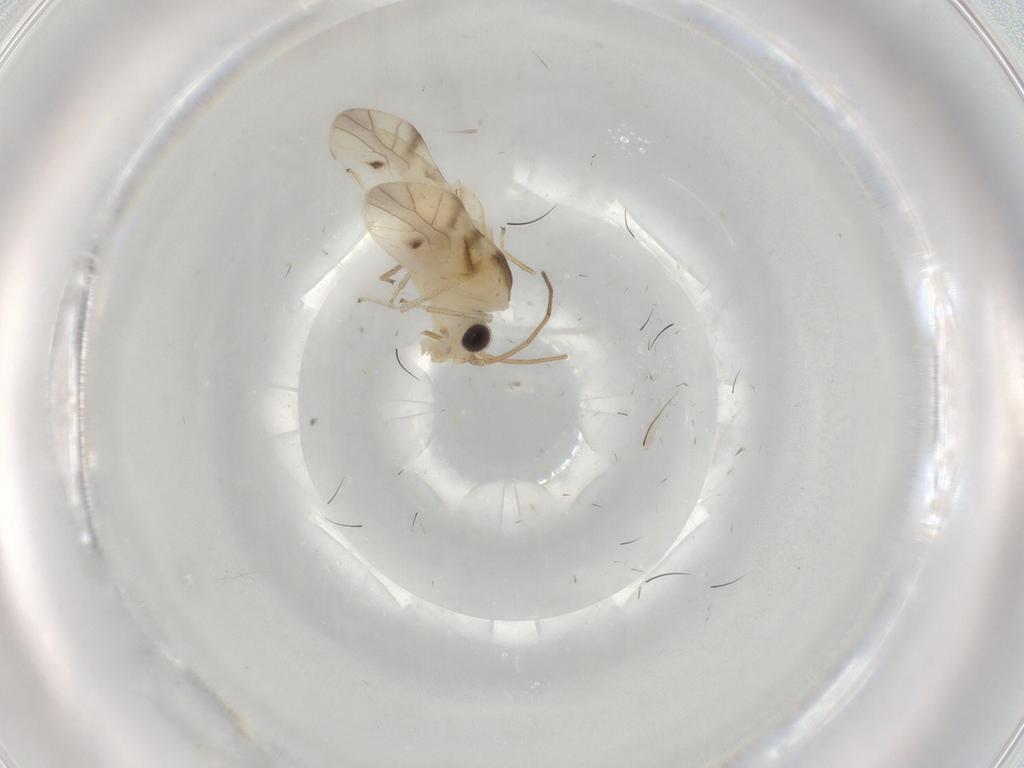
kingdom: Animalia
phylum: Arthropoda
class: Insecta
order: Psocodea
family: Caeciliusidae
